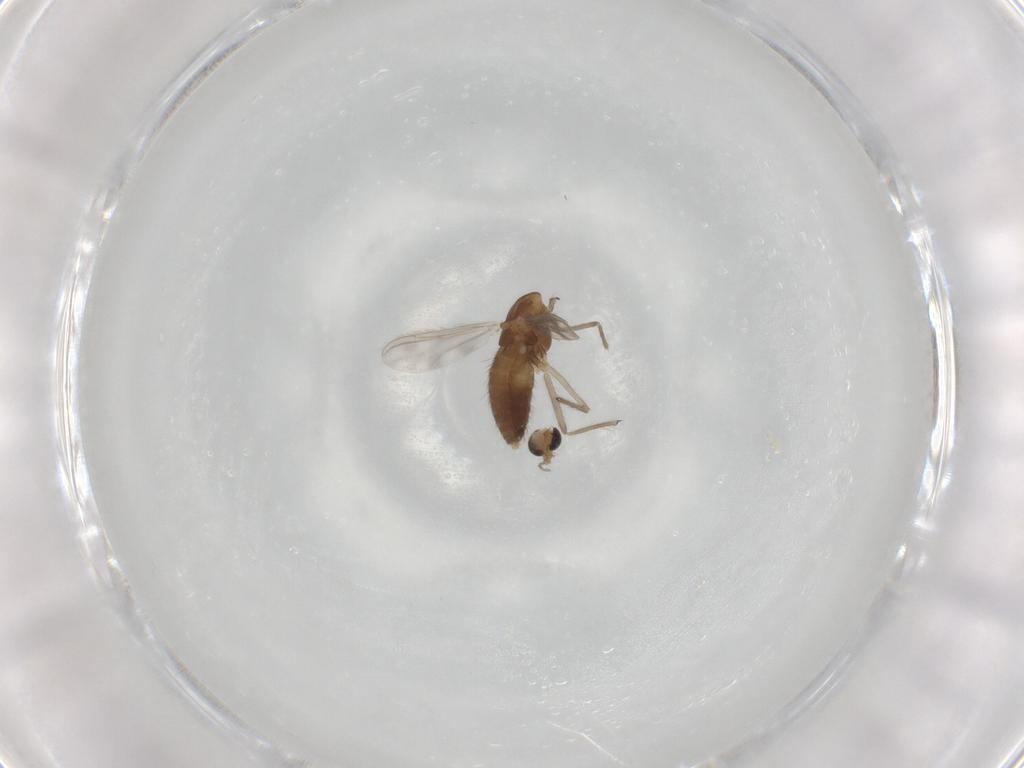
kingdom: Animalia
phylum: Arthropoda
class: Insecta
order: Diptera
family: Chironomidae
